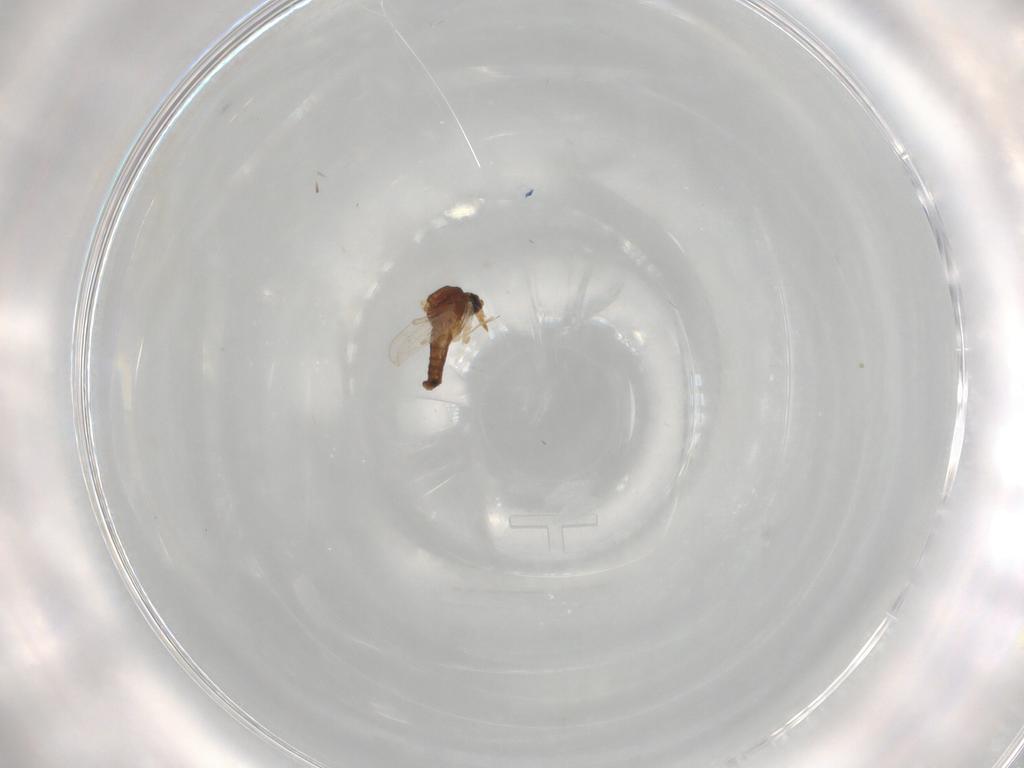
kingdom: Animalia
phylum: Arthropoda
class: Insecta
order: Diptera
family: Ceratopogonidae
